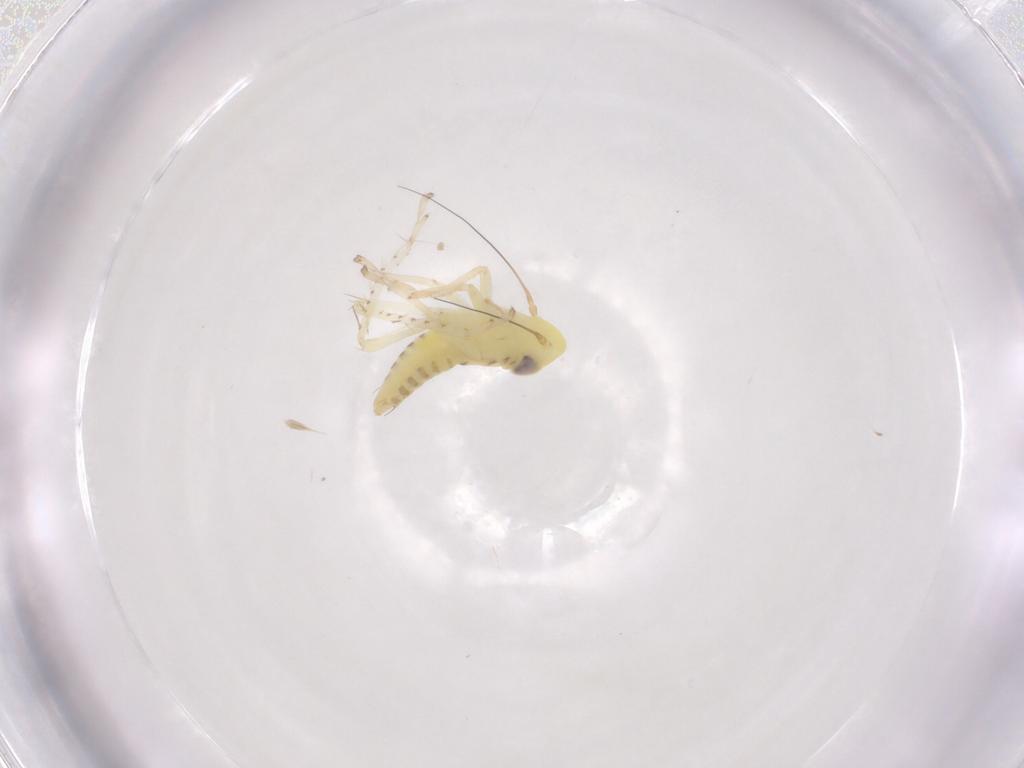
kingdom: Animalia
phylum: Arthropoda
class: Insecta
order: Hemiptera
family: Cicadellidae
